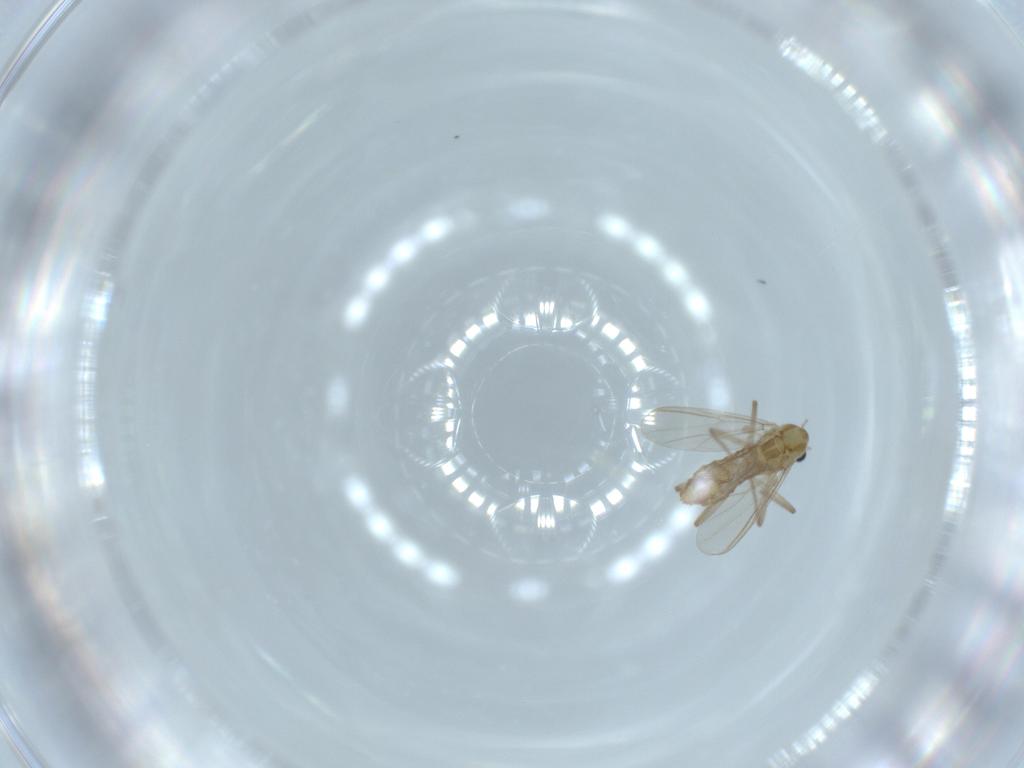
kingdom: Animalia
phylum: Arthropoda
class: Insecta
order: Diptera
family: Chironomidae
